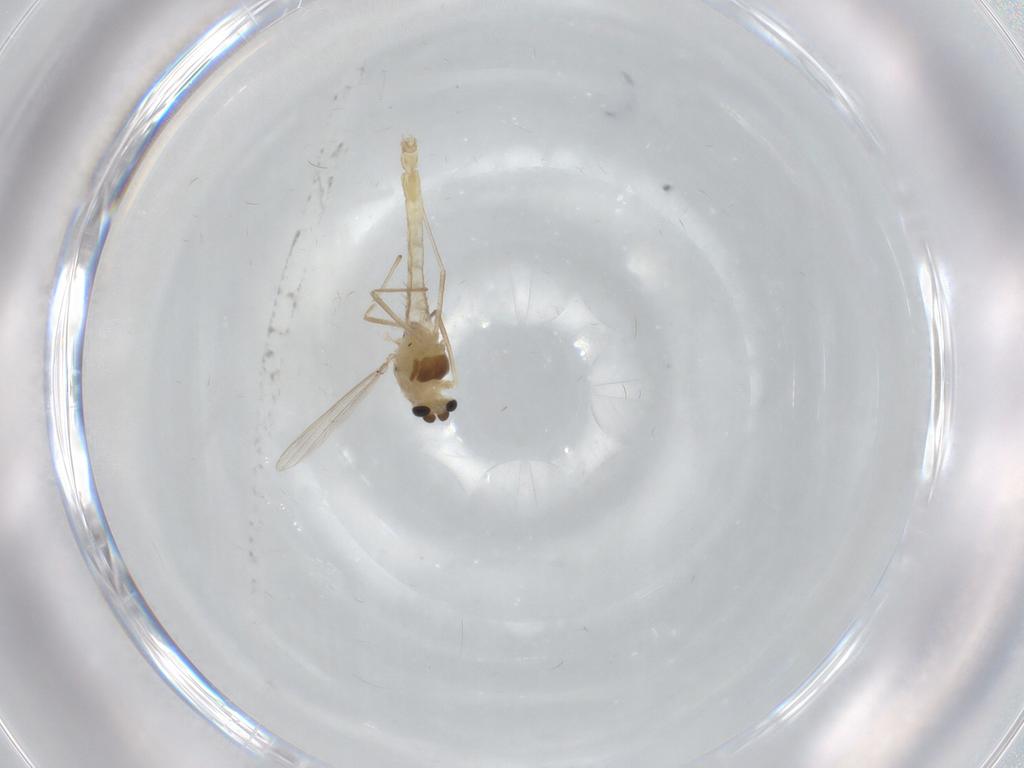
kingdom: Animalia
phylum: Arthropoda
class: Insecta
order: Diptera
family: Chironomidae
